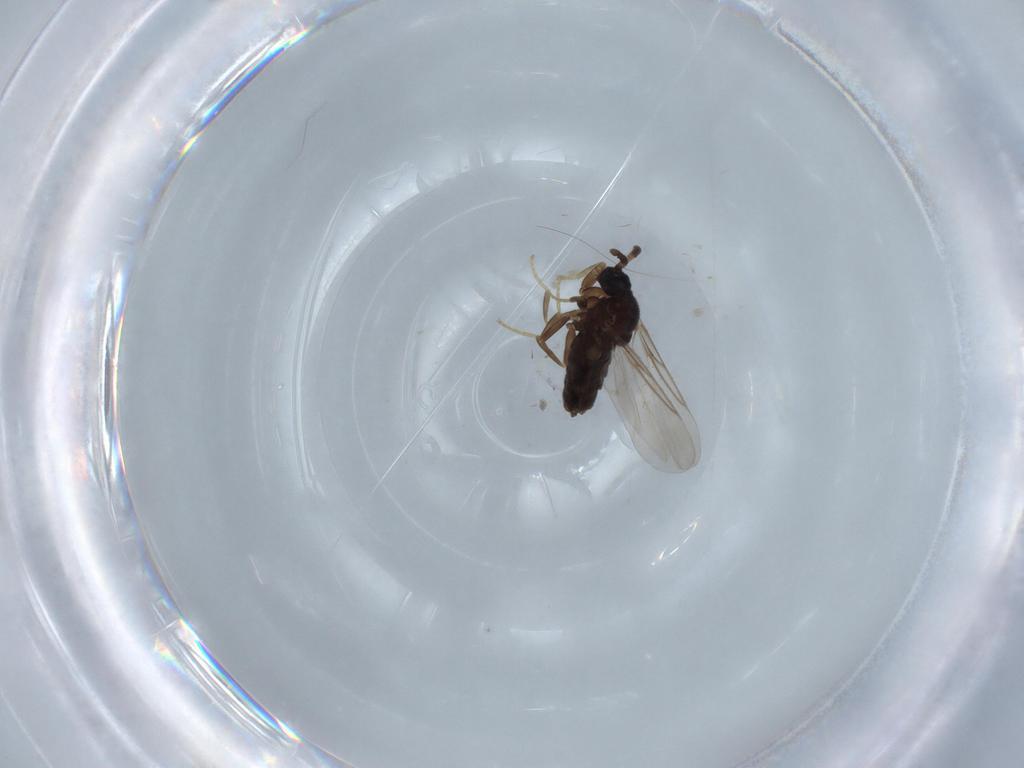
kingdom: Animalia
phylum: Arthropoda
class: Insecta
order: Diptera
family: Hybotidae
